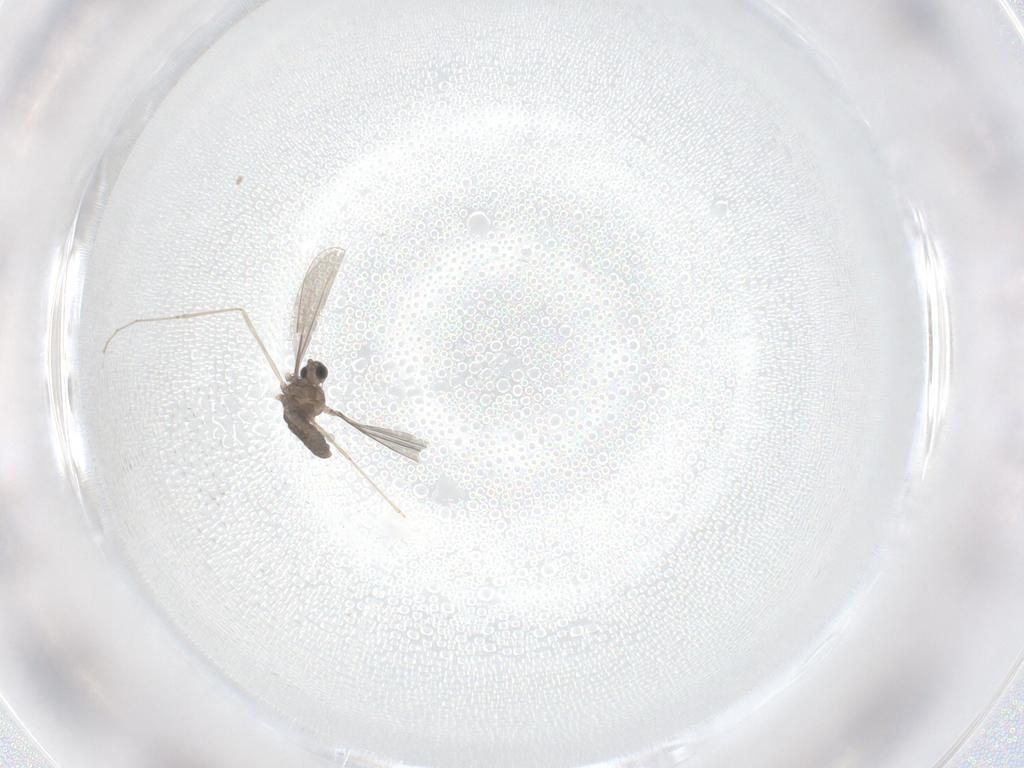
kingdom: Animalia
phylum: Arthropoda
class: Insecta
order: Diptera
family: Cecidomyiidae
